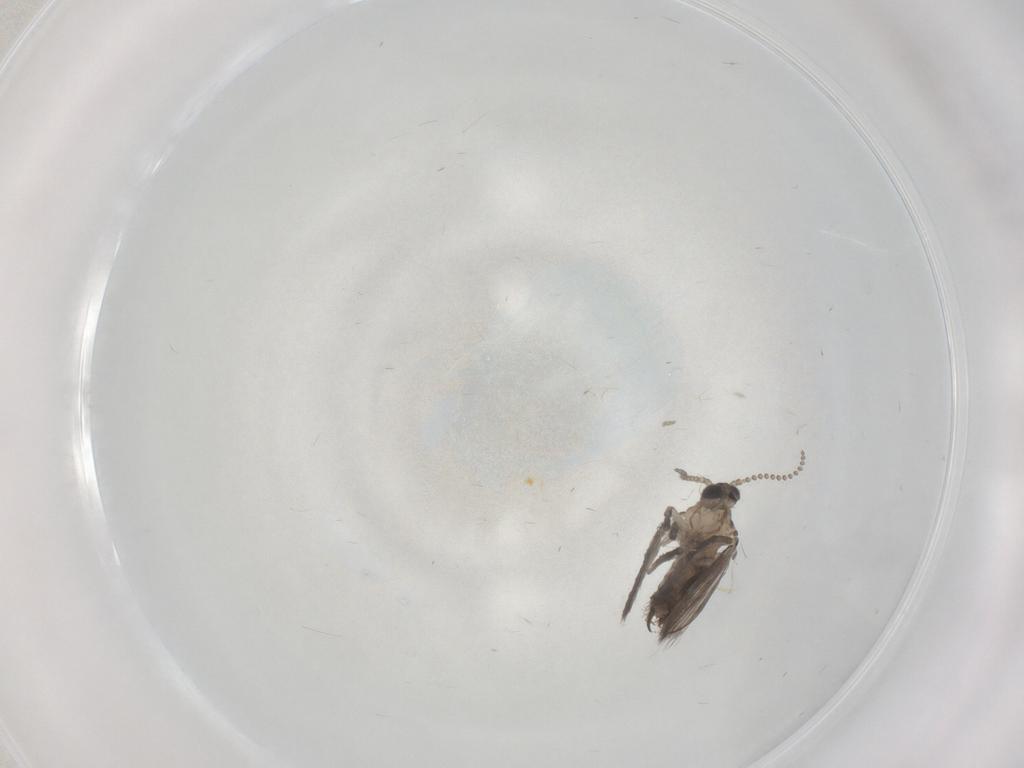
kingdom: Animalia
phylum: Arthropoda
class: Insecta
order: Diptera
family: Psychodidae
